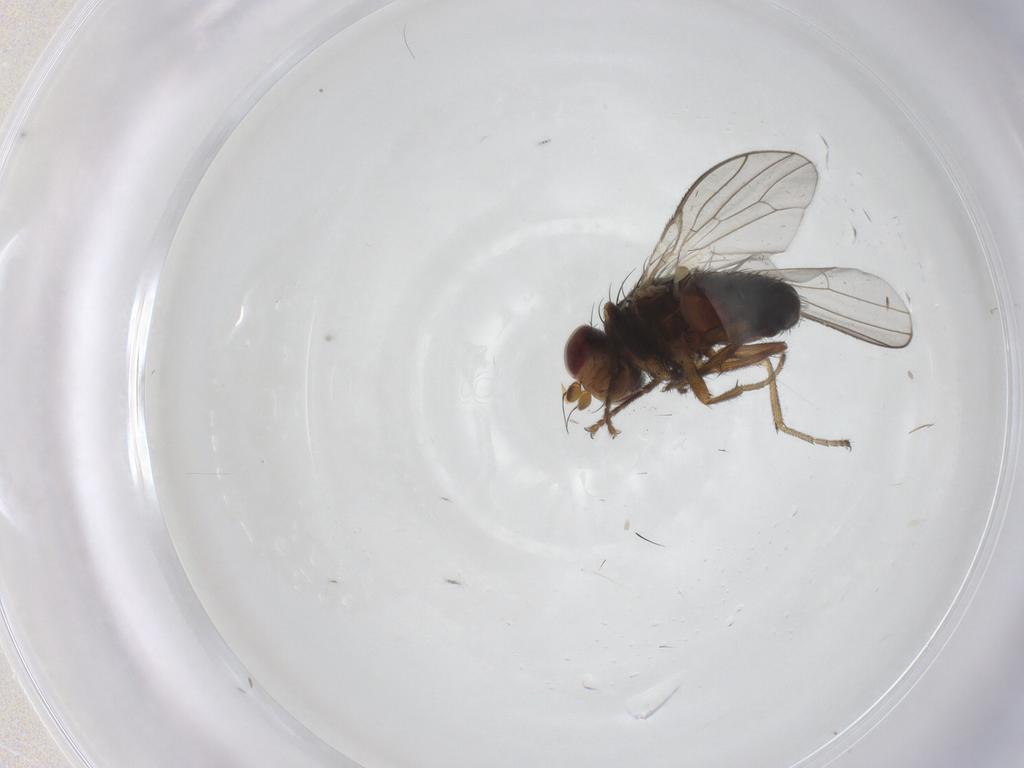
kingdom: Animalia
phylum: Arthropoda
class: Insecta
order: Diptera
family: Heleomyzidae
